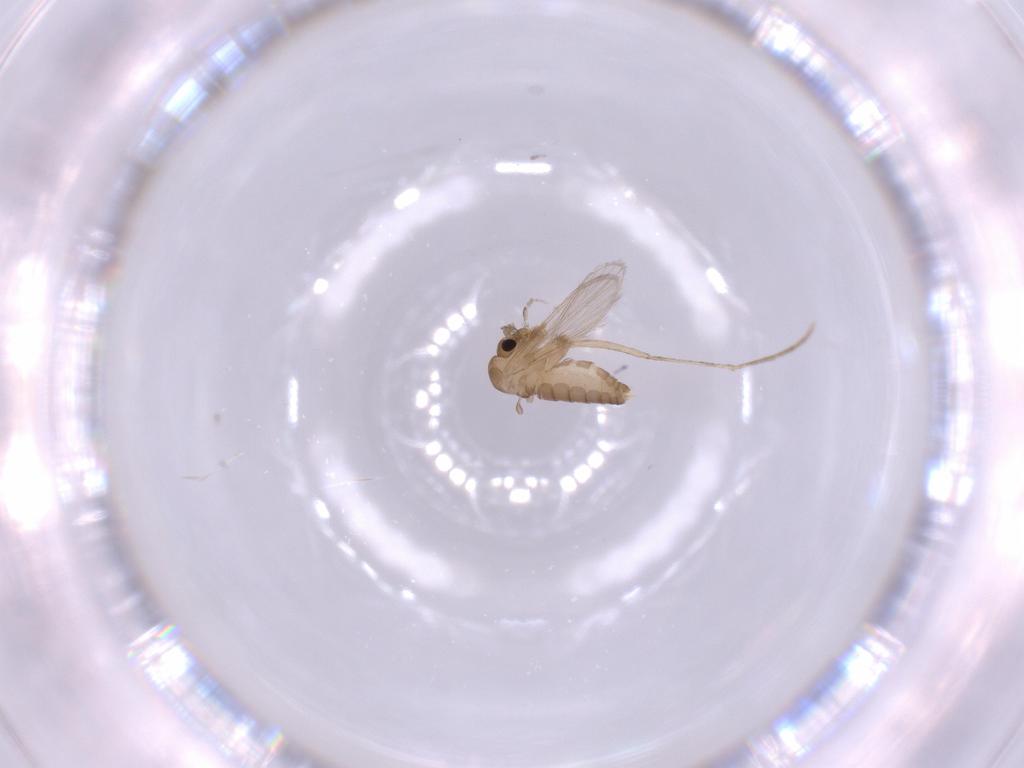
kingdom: Animalia
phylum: Arthropoda
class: Insecta
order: Diptera
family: Psychodidae
